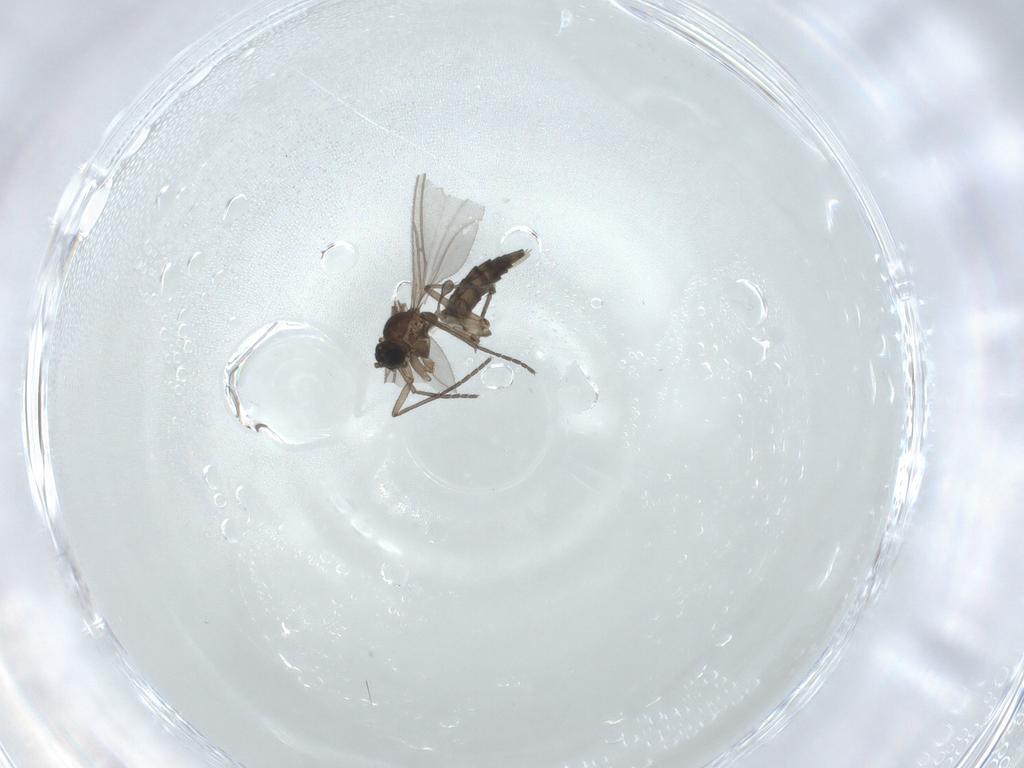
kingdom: Animalia
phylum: Arthropoda
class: Insecta
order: Diptera
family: Sciaridae
